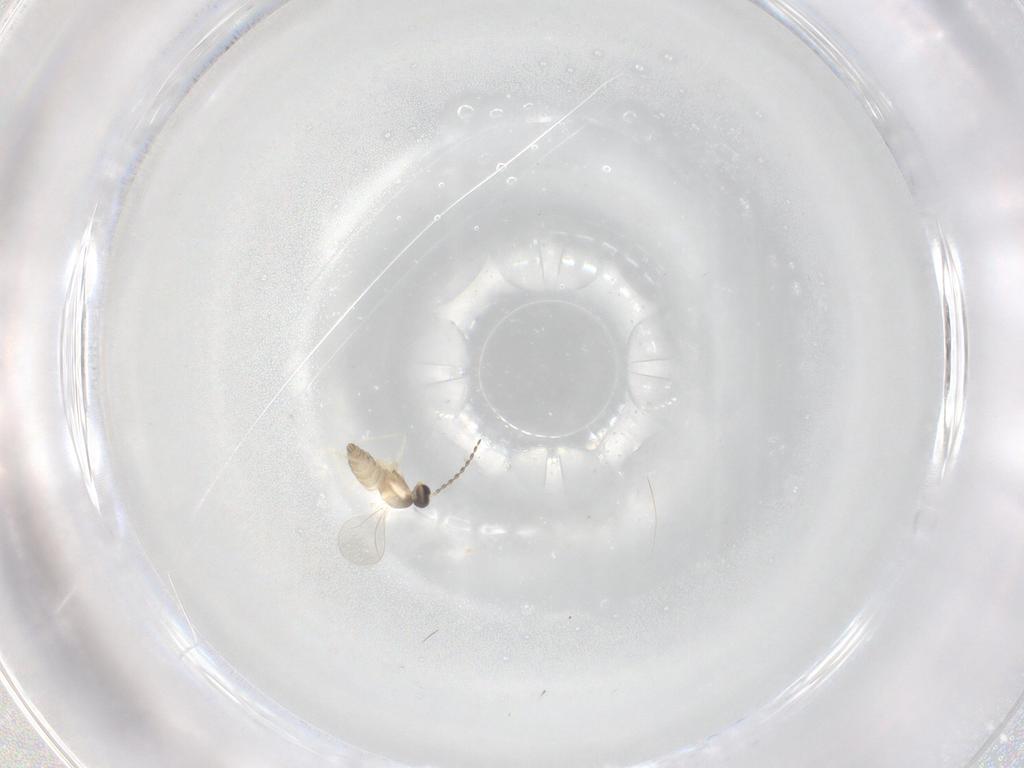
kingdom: Animalia
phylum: Arthropoda
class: Insecta
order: Diptera
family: Cecidomyiidae
